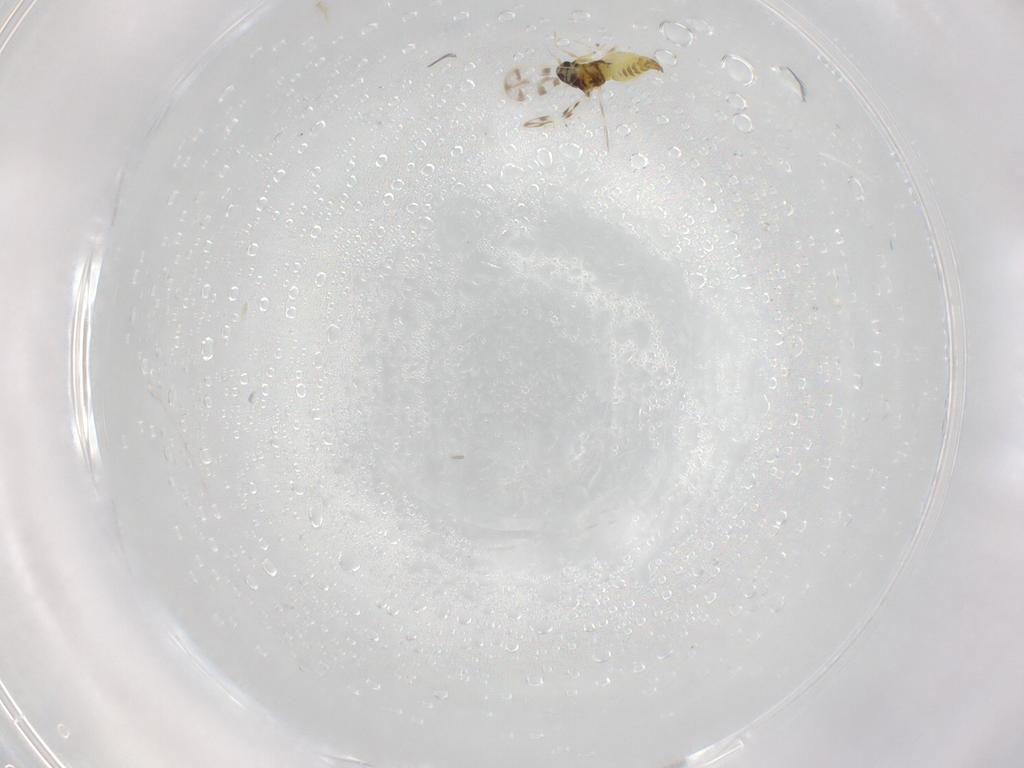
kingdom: Animalia
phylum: Arthropoda
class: Insecta
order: Hemiptera
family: Aleyrodidae
